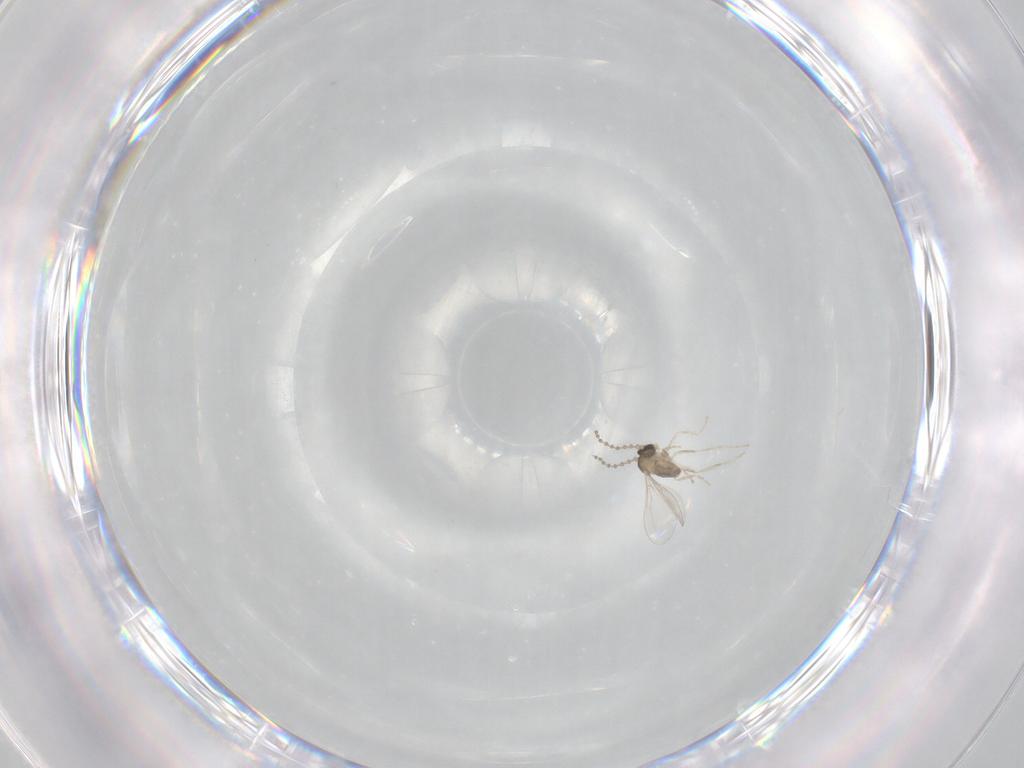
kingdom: Animalia
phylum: Arthropoda
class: Insecta
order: Diptera
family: Cecidomyiidae
